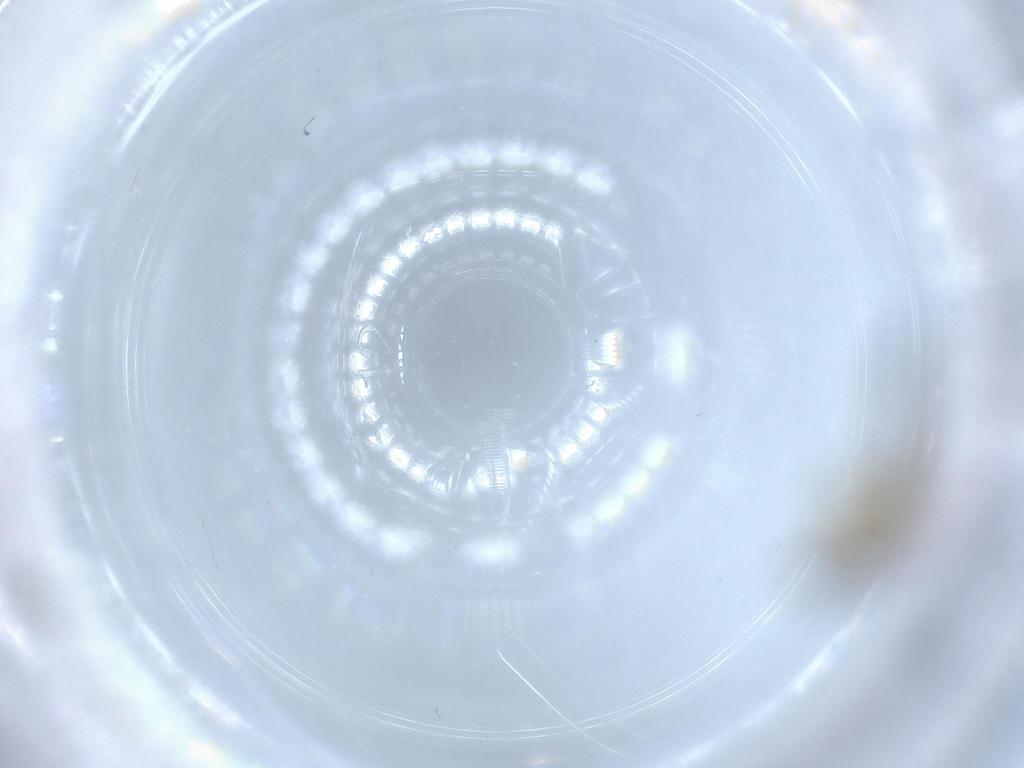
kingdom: Animalia
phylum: Arthropoda
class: Insecta
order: Diptera
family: Ceratopogonidae
